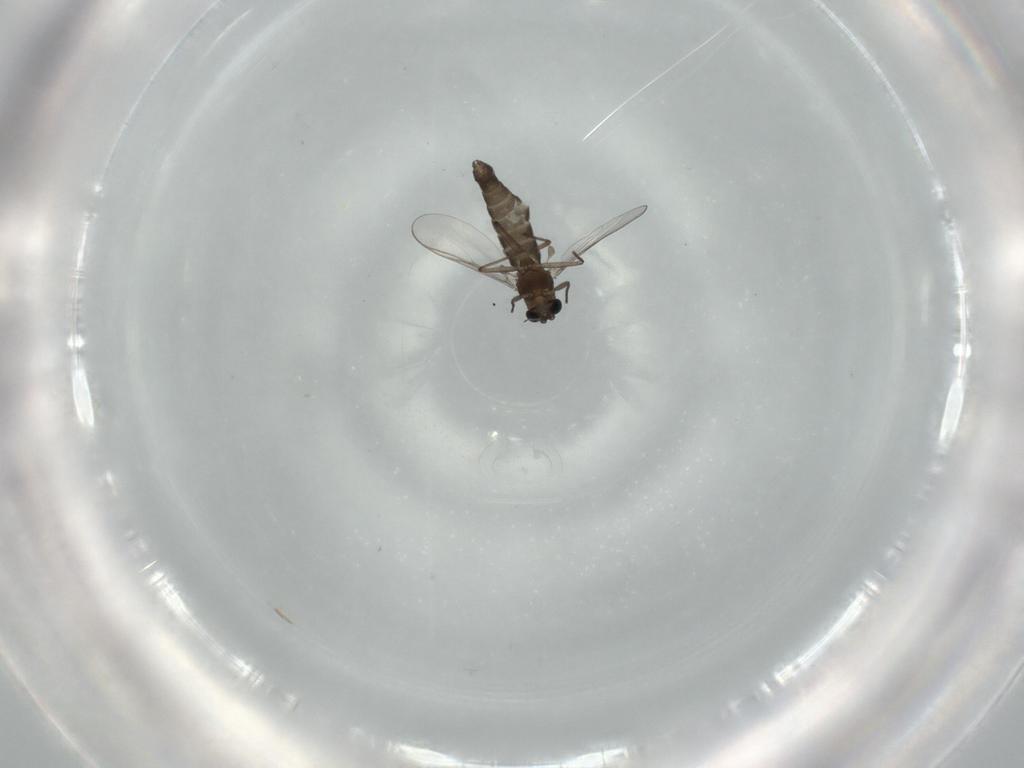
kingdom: Animalia
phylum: Arthropoda
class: Insecta
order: Diptera
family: Chironomidae
